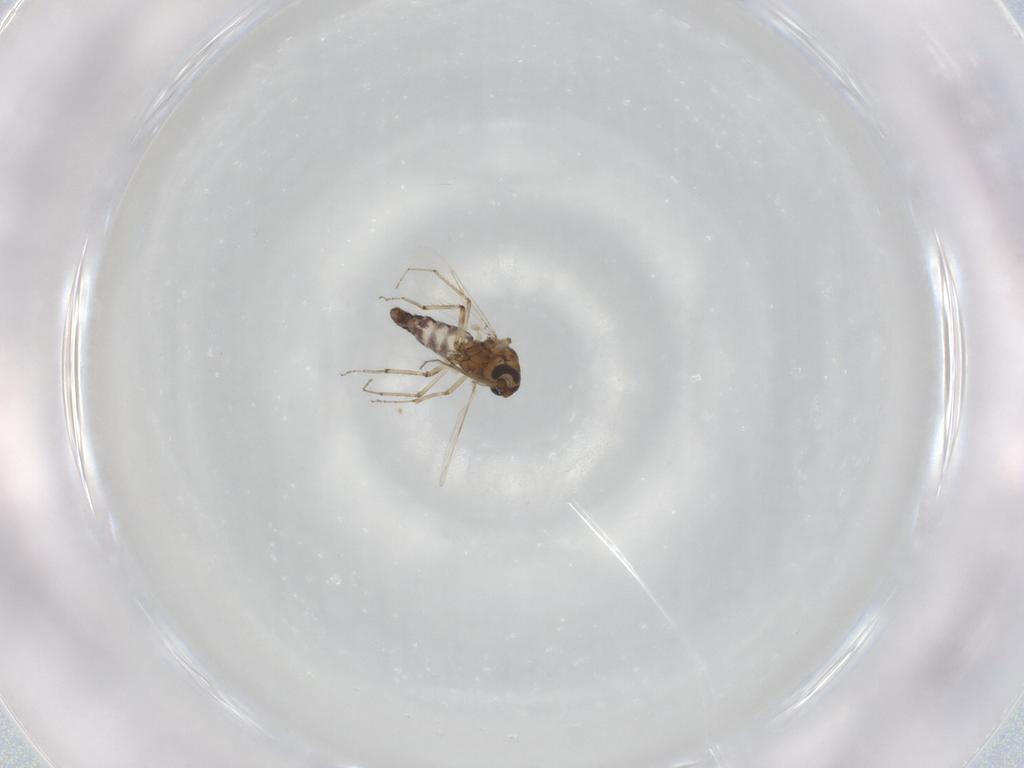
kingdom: Animalia
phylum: Arthropoda
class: Insecta
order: Diptera
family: Ceratopogonidae
